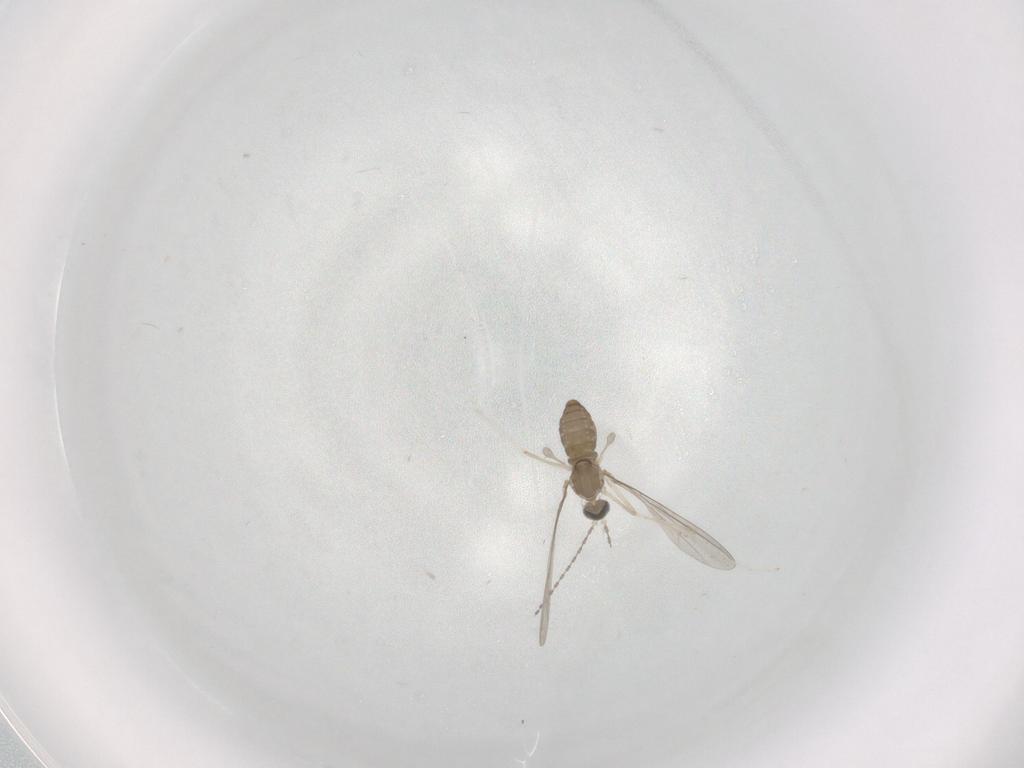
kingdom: Animalia
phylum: Arthropoda
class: Insecta
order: Diptera
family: Cecidomyiidae
